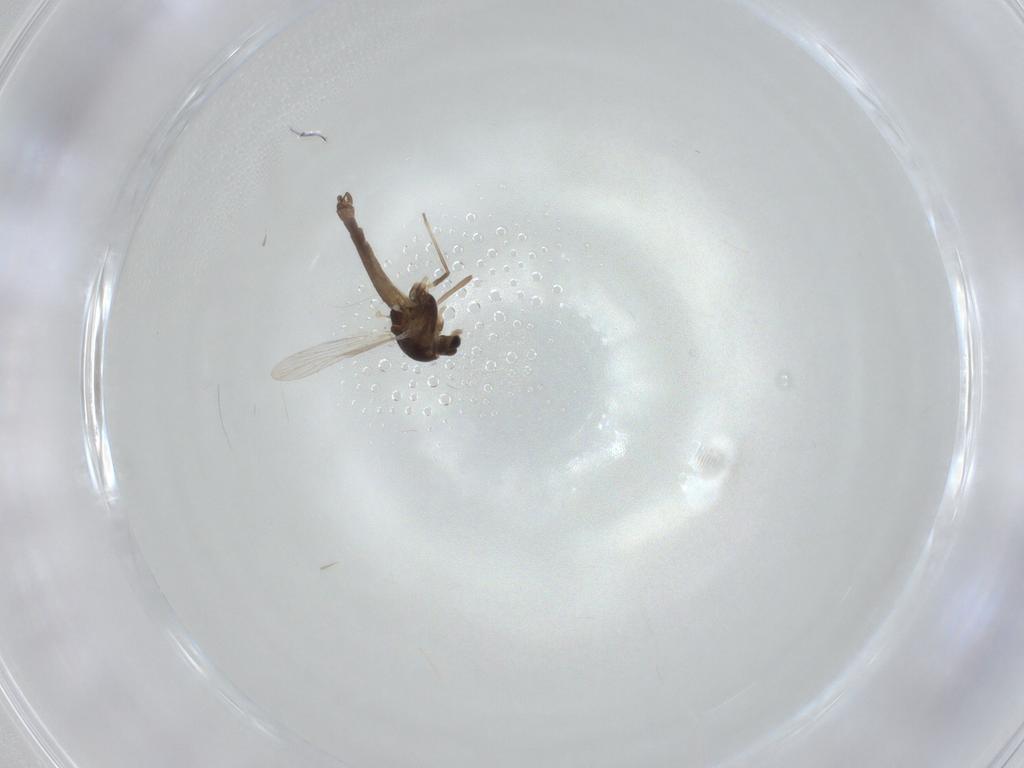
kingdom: Animalia
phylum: Arthropoda
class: Insecta
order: Diptera
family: Chironomidae
